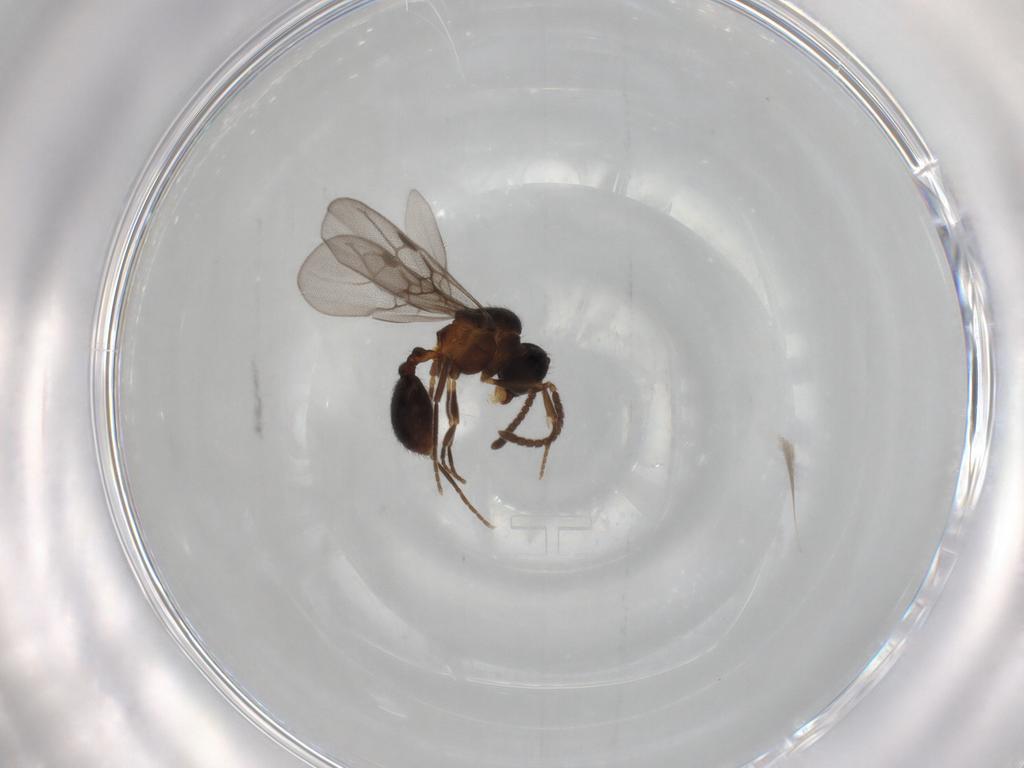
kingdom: Animalia
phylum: Arthropoda
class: Insecta
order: Hymenoptera
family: Formicidae
